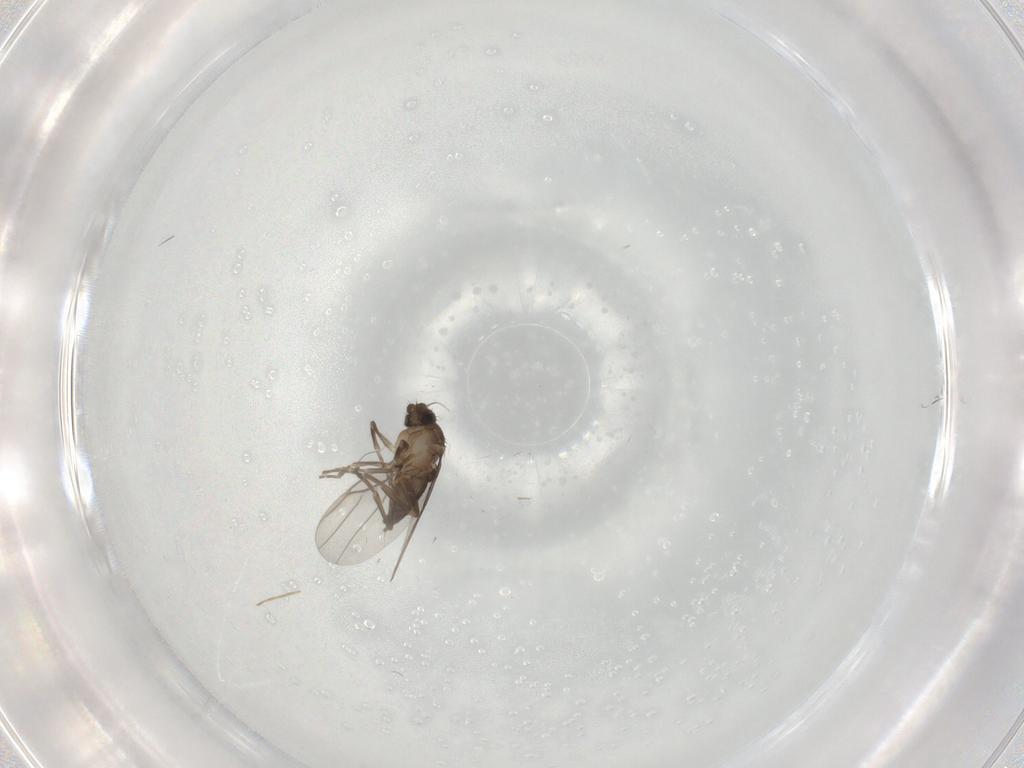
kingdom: Animalia
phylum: Arthropoda
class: Insecta
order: Diptera
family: Phoridae
